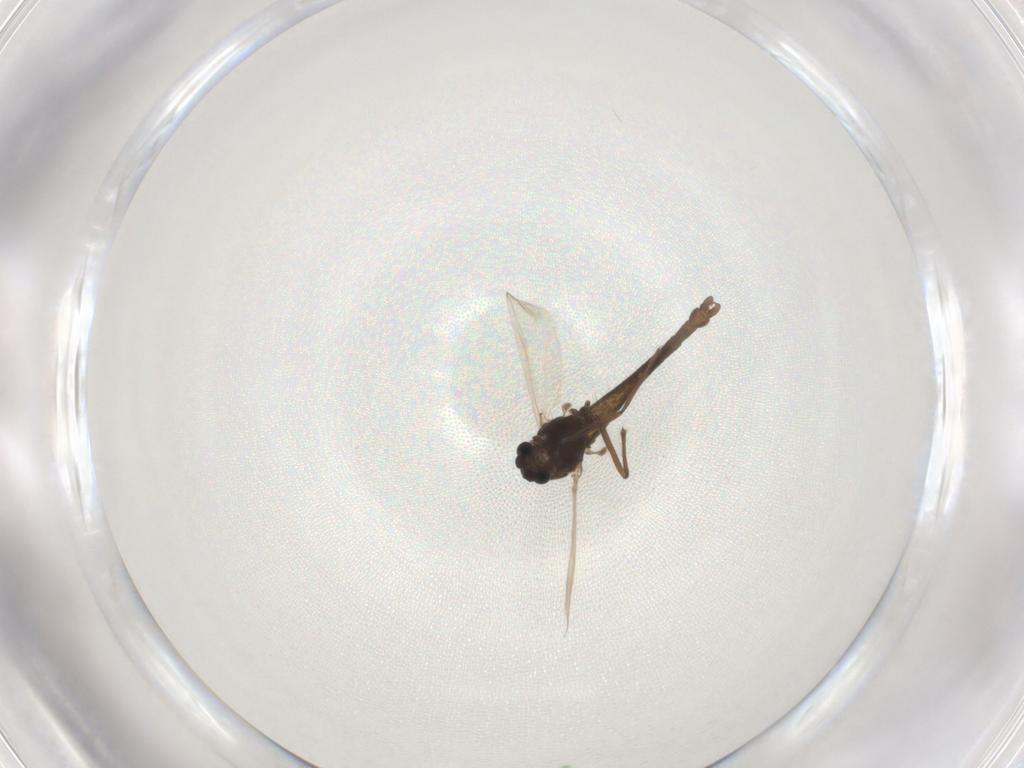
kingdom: Animalia
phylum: Arthropoda
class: Insecta
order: Diptera
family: Chironomidae
